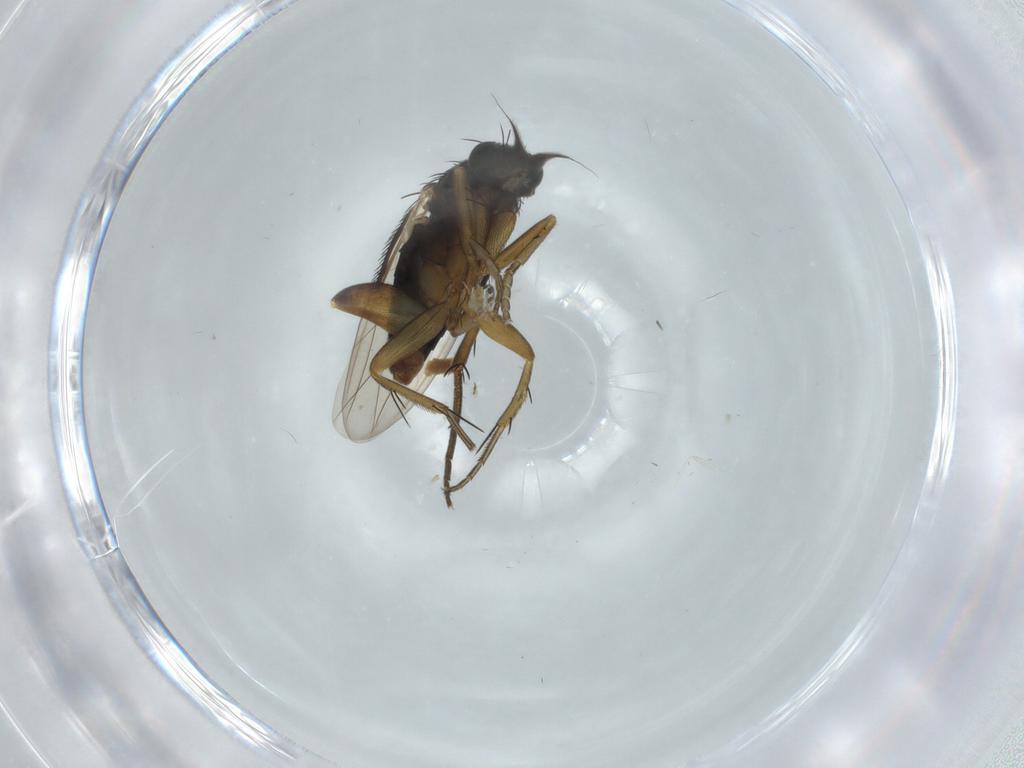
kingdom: Animalia
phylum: Arthropoda
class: Insecta
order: Diptera
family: Phoridae
